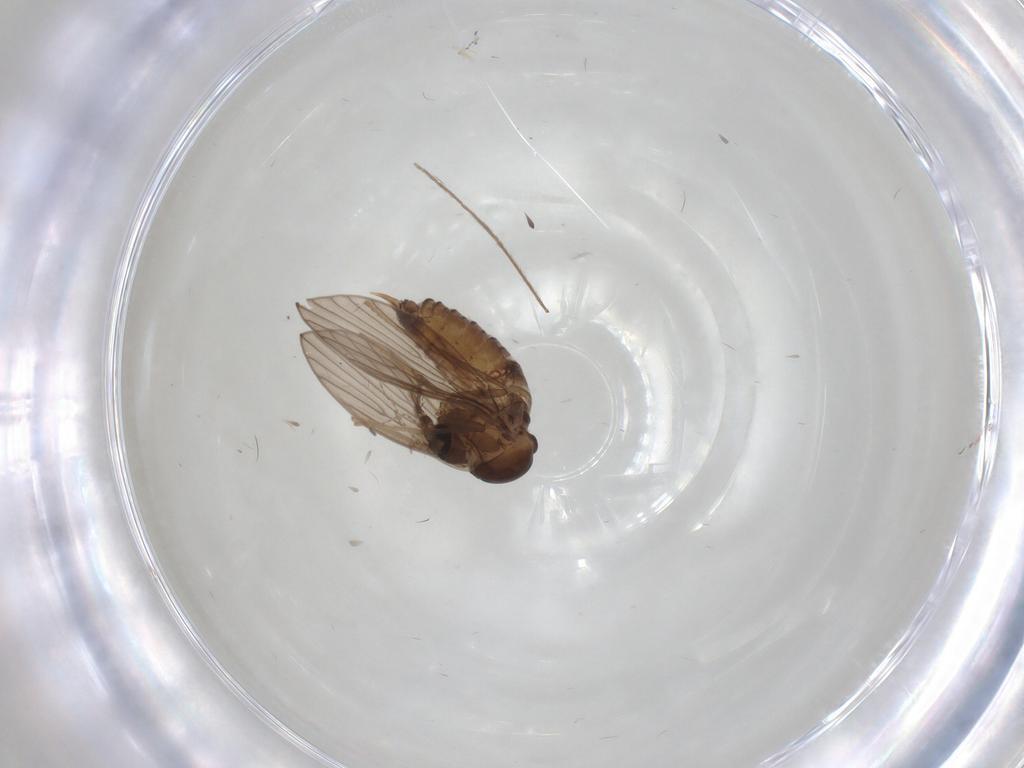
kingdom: Animalia
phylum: Arthropoda
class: Insecta
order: Diptera
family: Psychodidae
